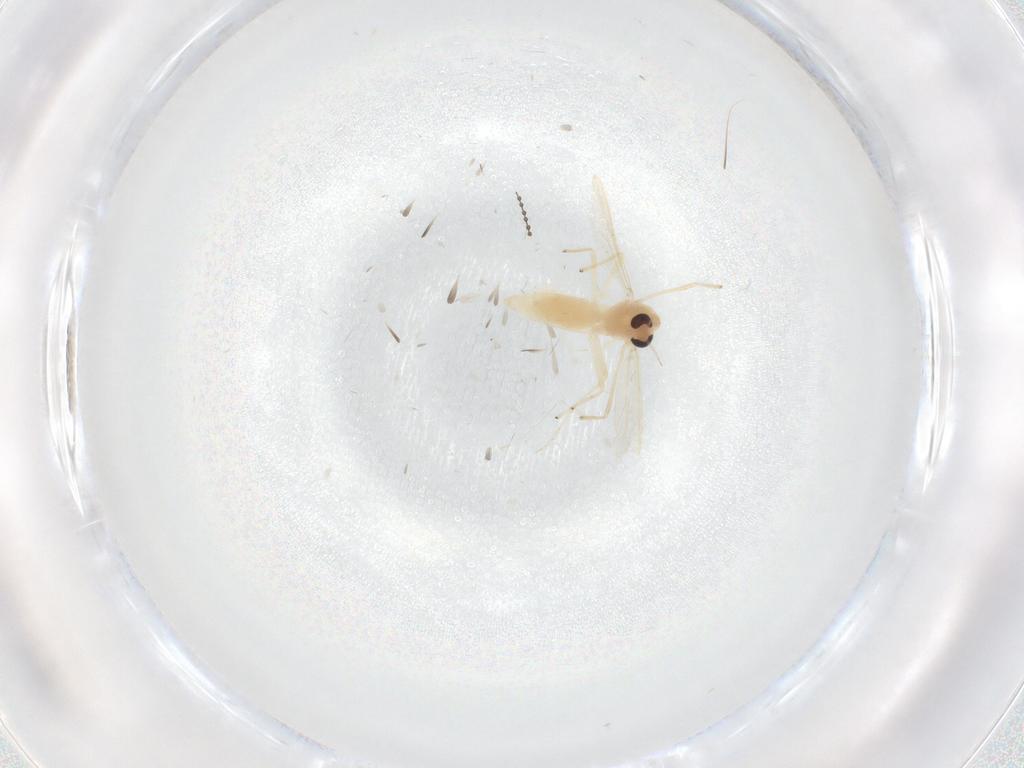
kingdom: Animalia
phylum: Arthropoda
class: Insecta
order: Diptera
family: Chironomidae
